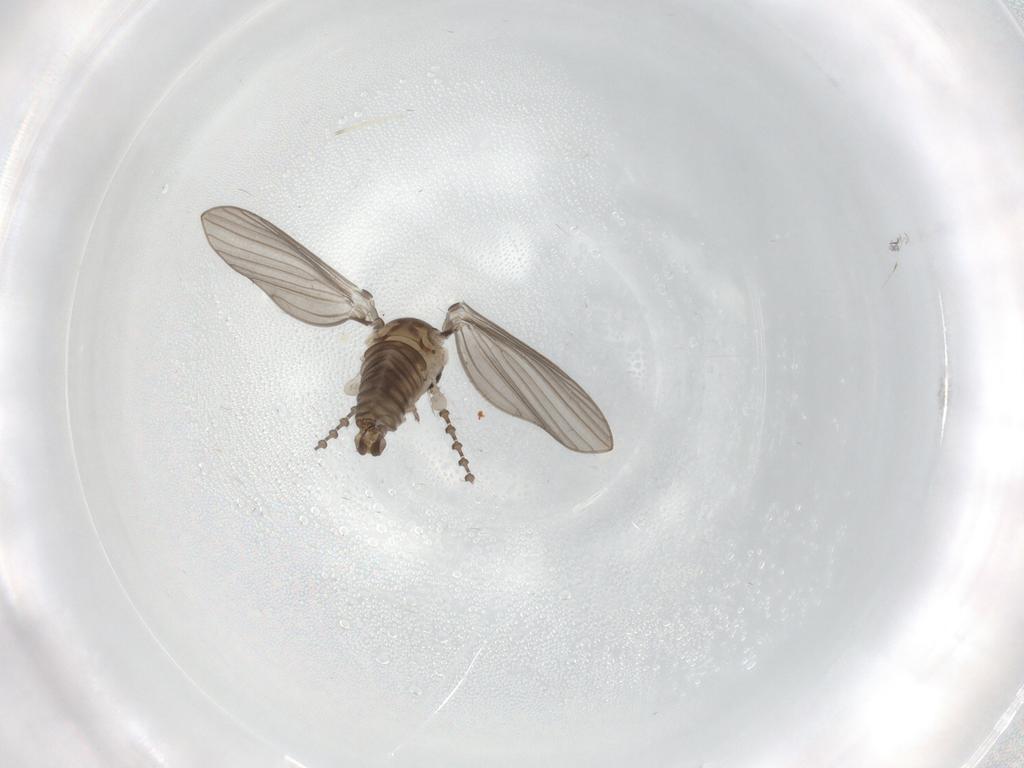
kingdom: Animalia
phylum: Arthropoda
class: Insecta
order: Diptera
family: Psychodidae
